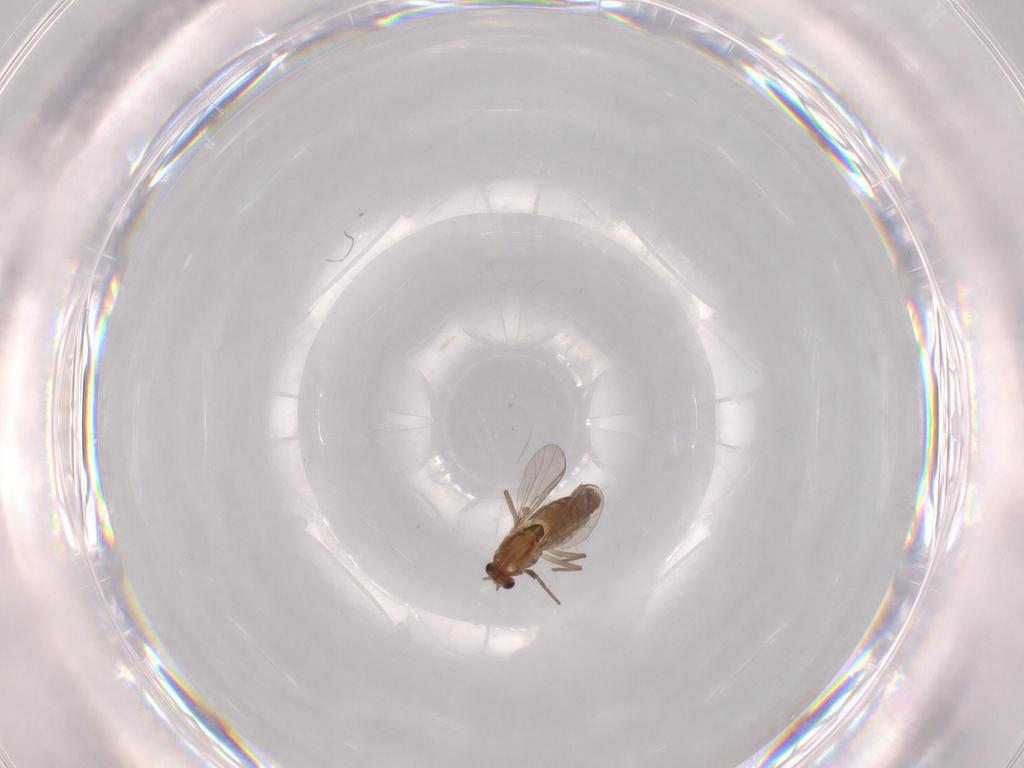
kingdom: Animalia
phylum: Arthropoda
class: Insecta
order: Diptera
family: Chironomidae
